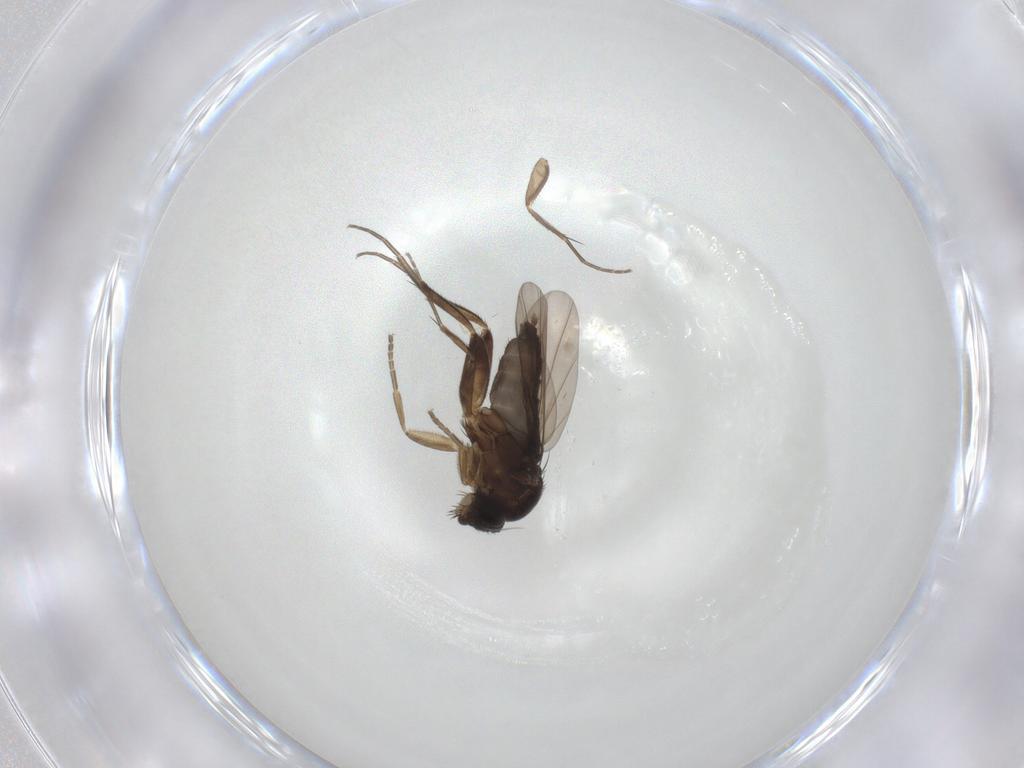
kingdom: Animalia
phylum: Arthropoda
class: Insecta
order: Diptera
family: Phoridae
